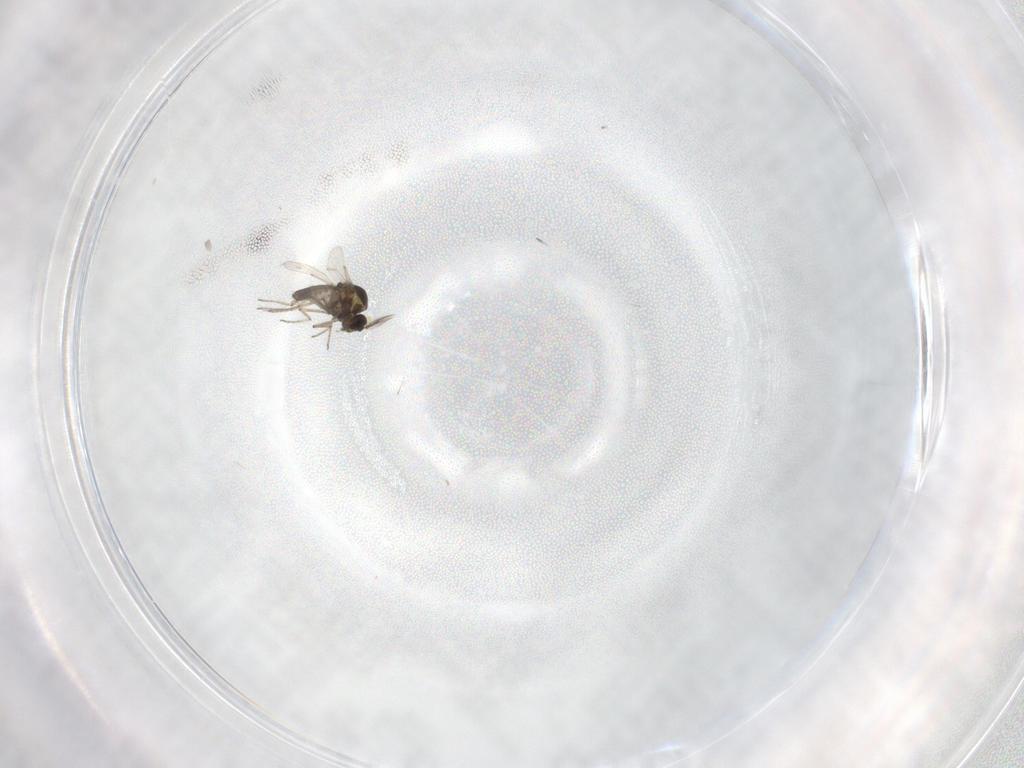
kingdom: Animalia
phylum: Arthropoda
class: Insecta
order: Diptera
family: Ceratopogonidae
